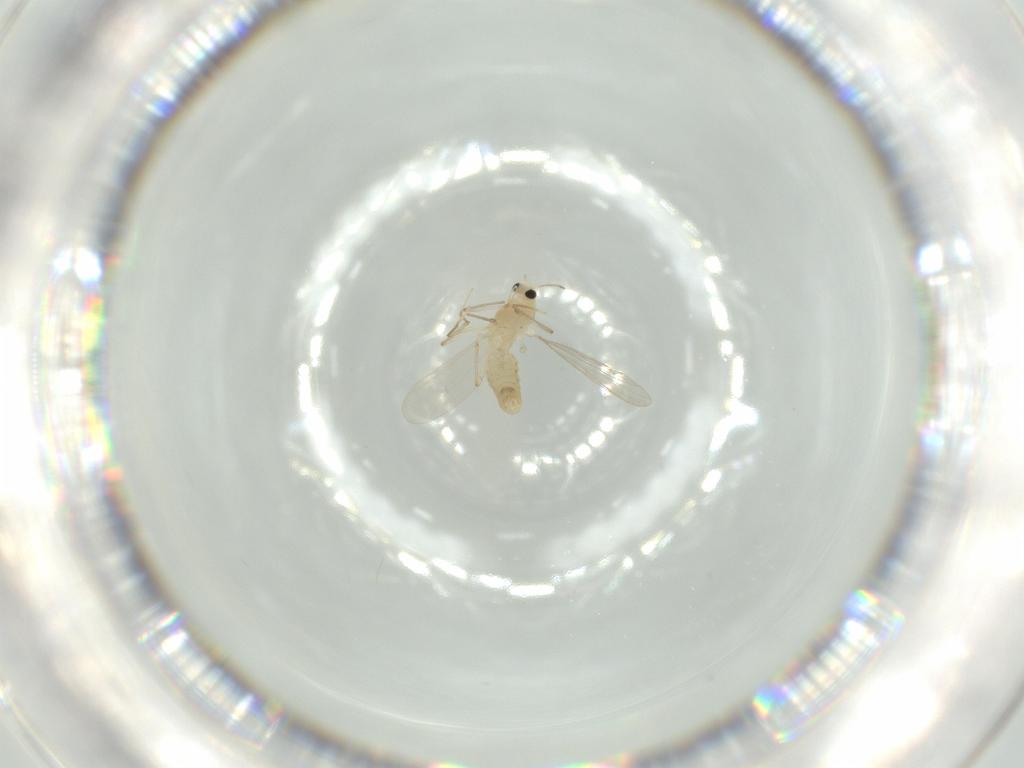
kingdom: Animalia
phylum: Arthropoda
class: Insecta
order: Diptera
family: Chironomidae
